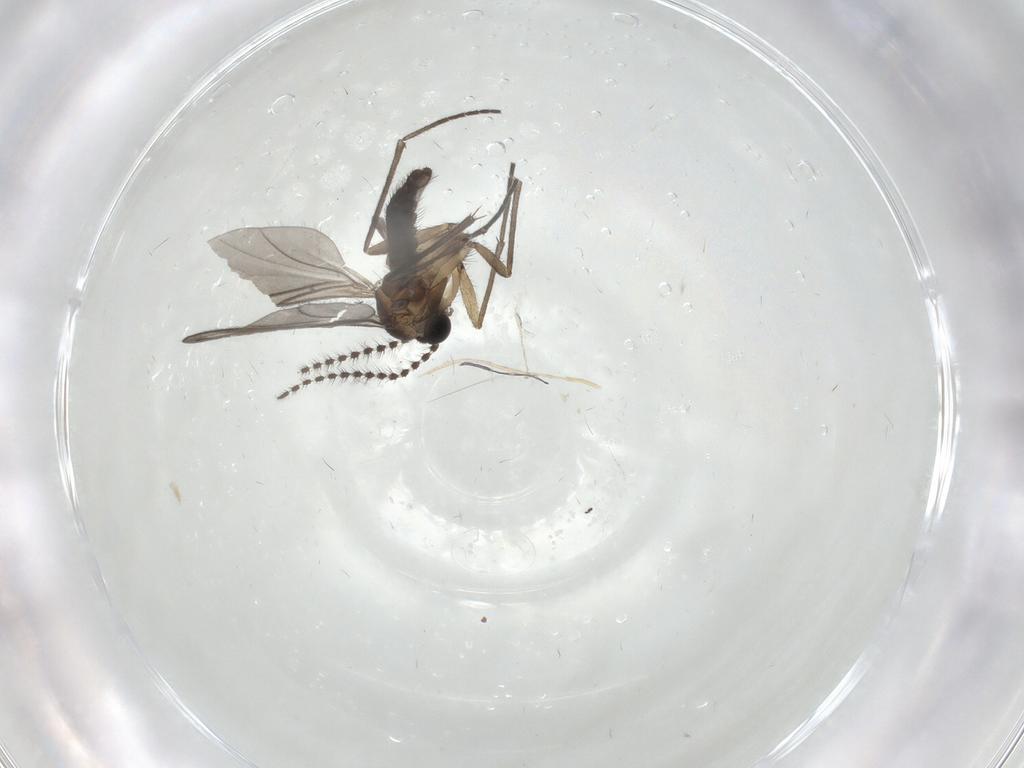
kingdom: Animalia
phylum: Arthropoda
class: Insecta
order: Diptera
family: Sciaridae
